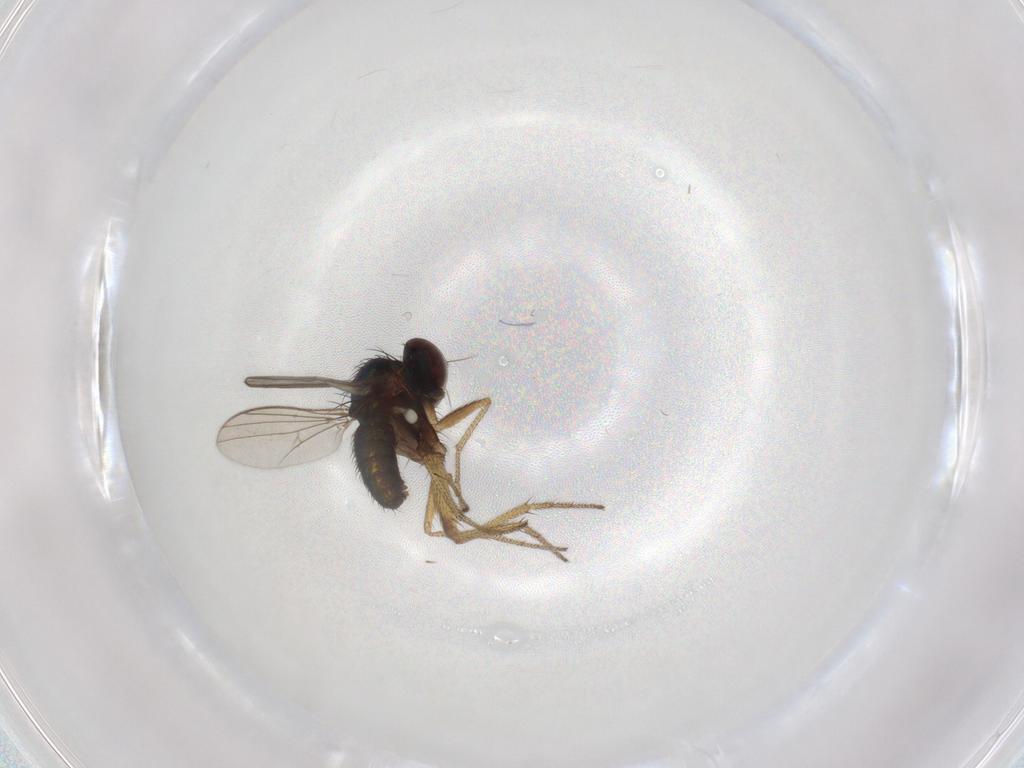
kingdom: Animalia
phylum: Arthropoda
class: Insecta
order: Diptera
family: Dolichopodidae
